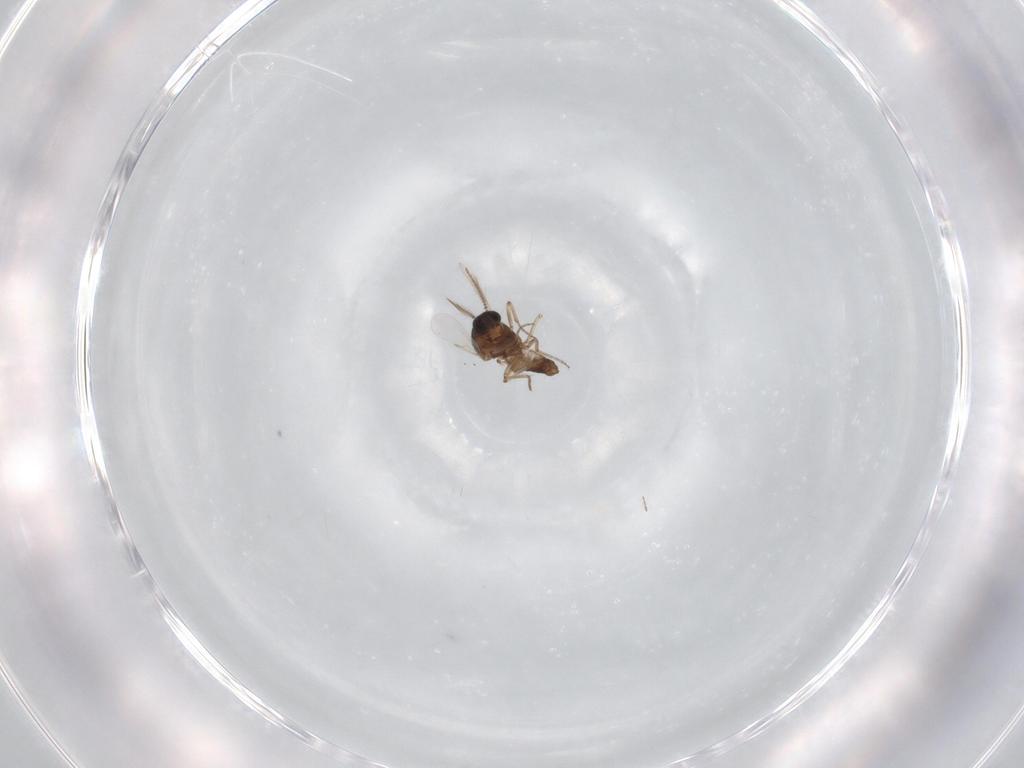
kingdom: Animalia
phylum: Arthropoda
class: Insecta
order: Diptera
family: Ceratopogonidae
